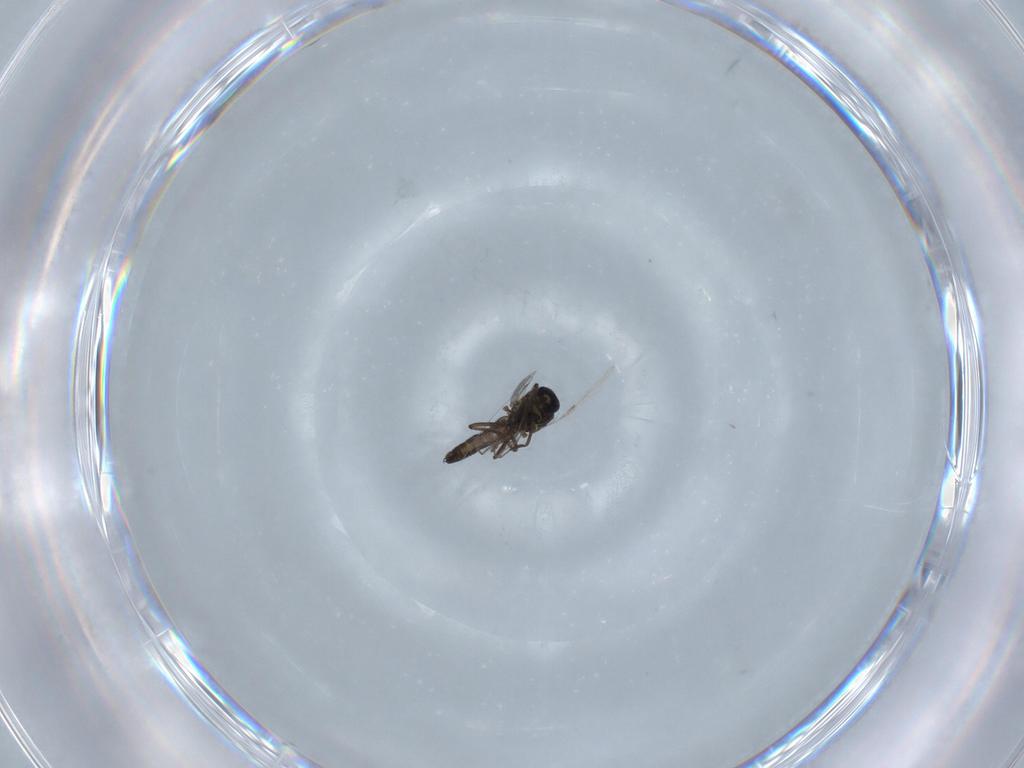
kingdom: Animalia
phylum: Arthropoda
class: Insecta
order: Diptera
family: Ceratopogonidae
